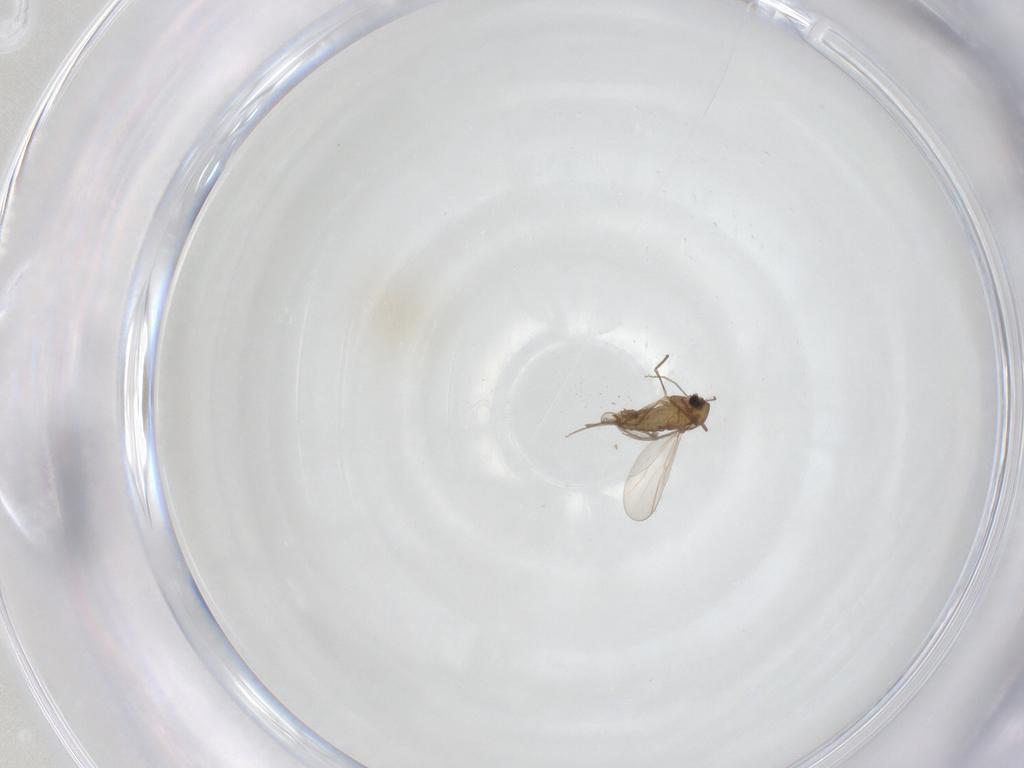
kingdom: Animalia
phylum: Arthropoda
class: Insecta
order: Diptera
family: Chironomidae
